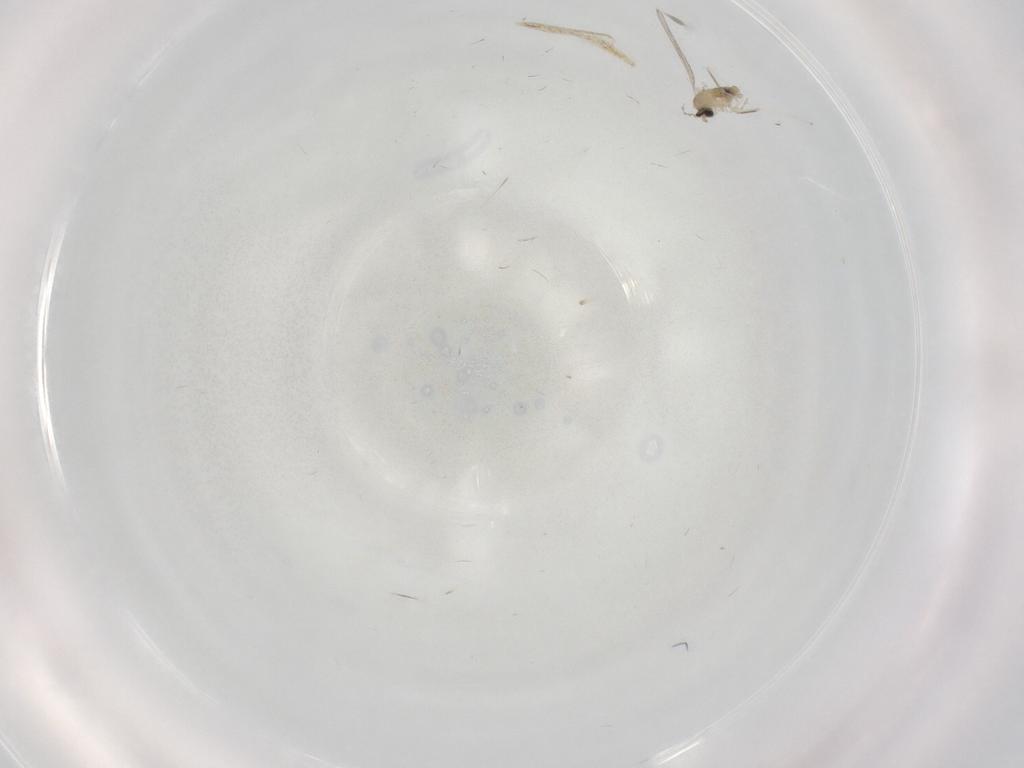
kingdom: Animalia
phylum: Arthropoda
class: Insecta
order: Diptera
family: Cecidomyiidae
